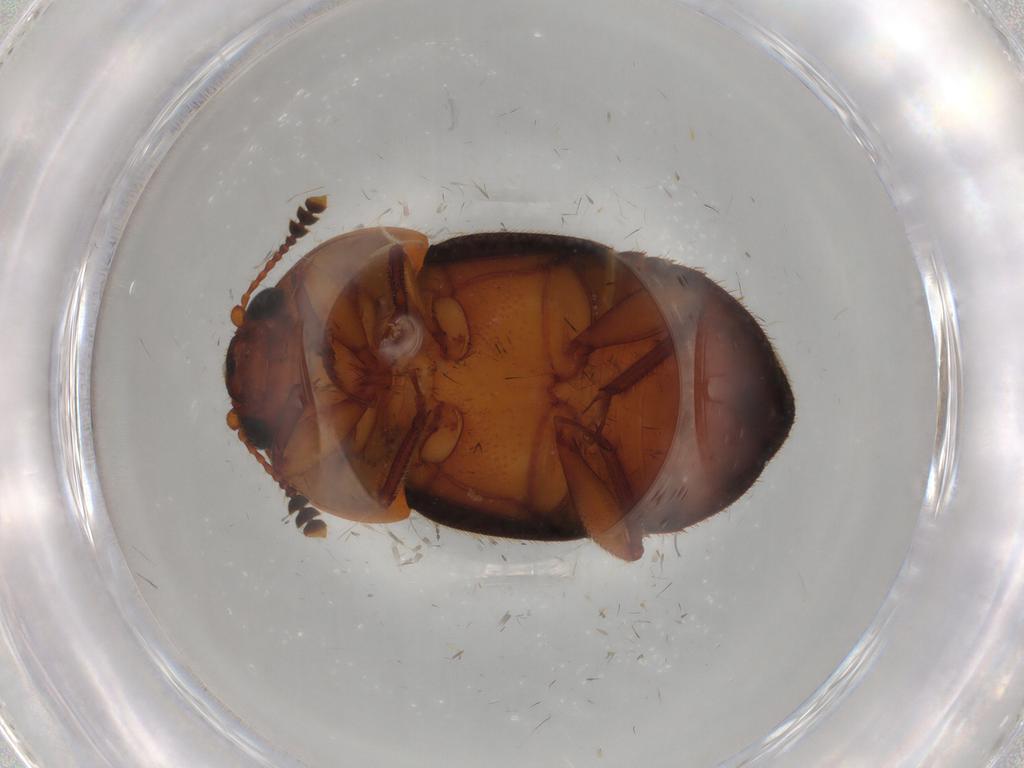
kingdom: Animalia
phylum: Arthropoda
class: Insecta
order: Coleoptera
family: Nitidulidae
